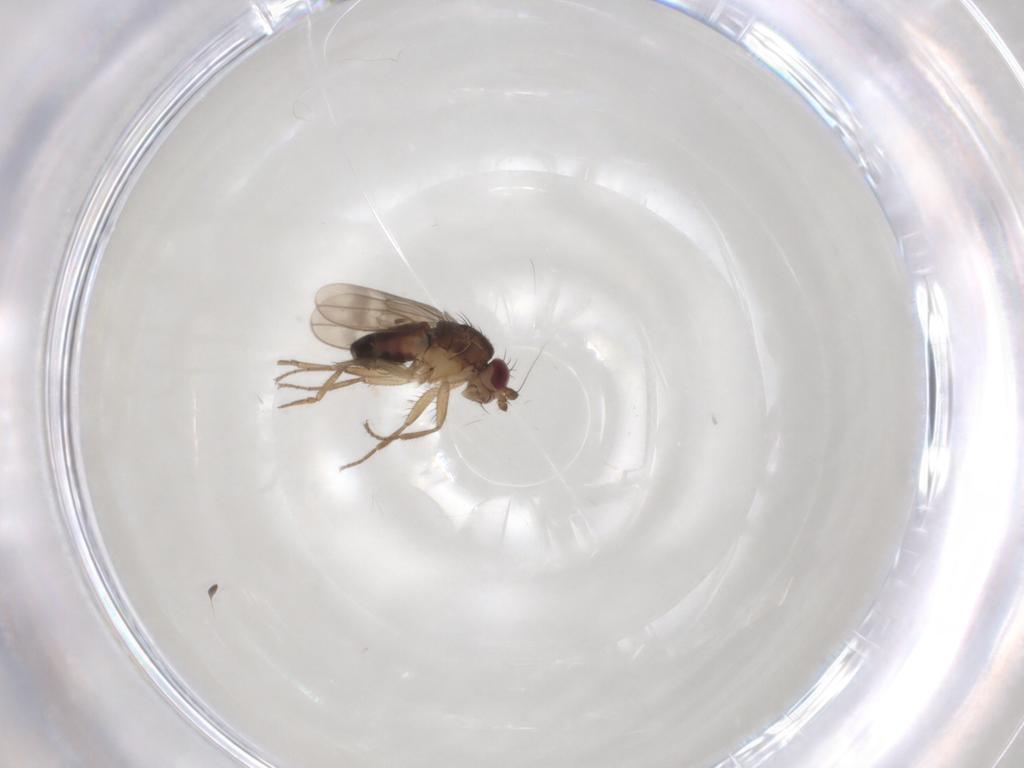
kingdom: Animalia
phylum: Arthropoda
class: Insecta
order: Diptera
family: Sphaeroceridae
